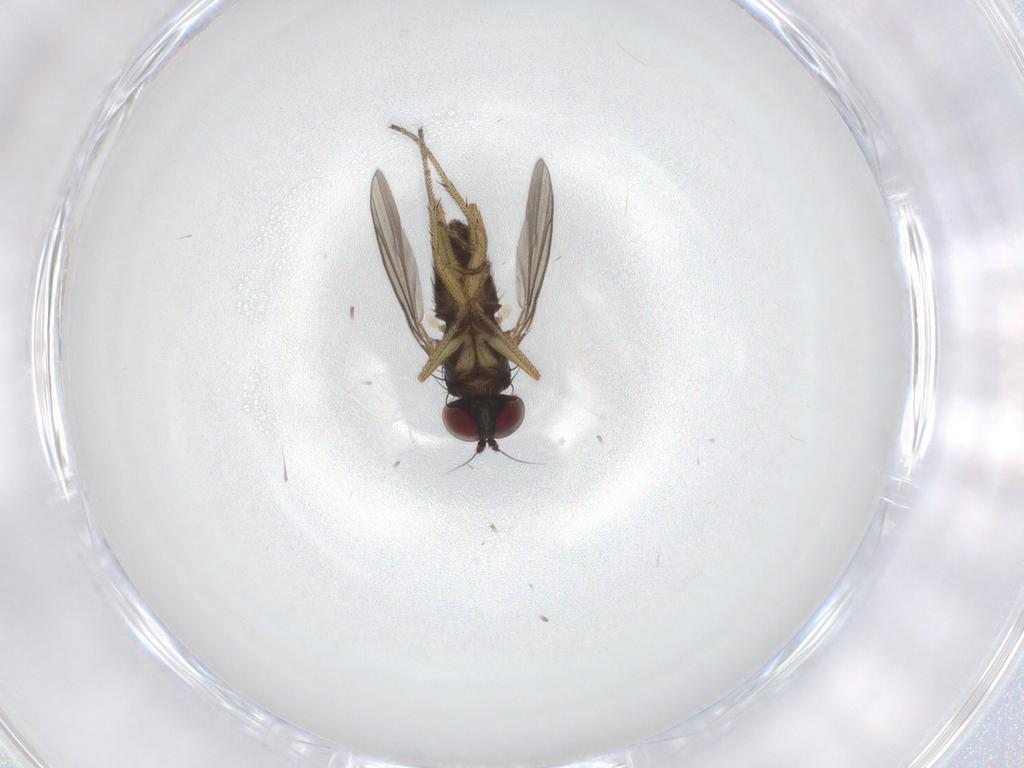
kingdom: Animalia
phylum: Arthropoda
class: Insecta
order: Diptera
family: Dolichopodidae
